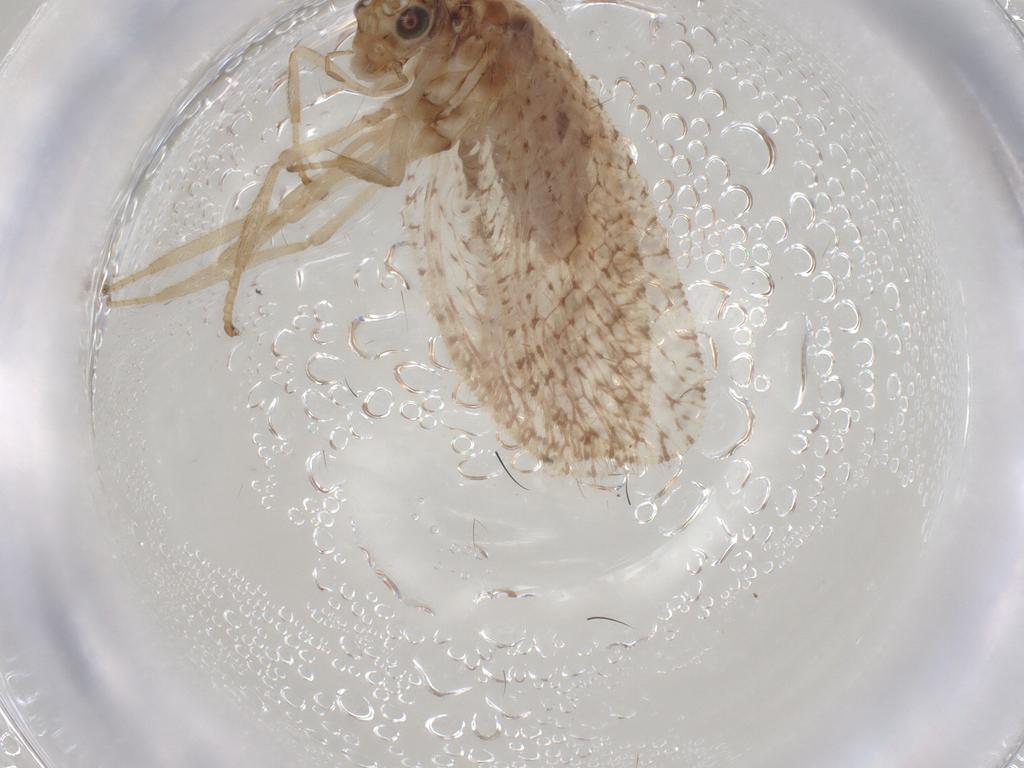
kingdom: Animalia
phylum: Arthropoda
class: Insecta
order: Neuroptera
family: Hemerobiidae
